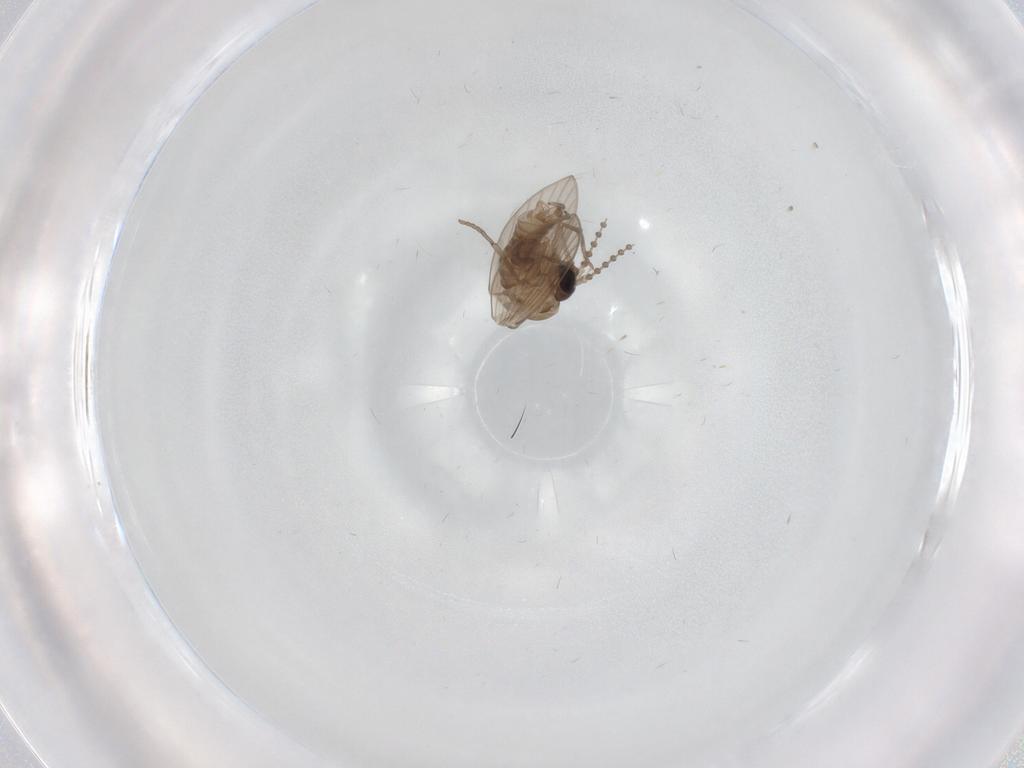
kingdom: Animalia
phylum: Arthropoda
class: Insecta
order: Diptera
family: Psychodidae
